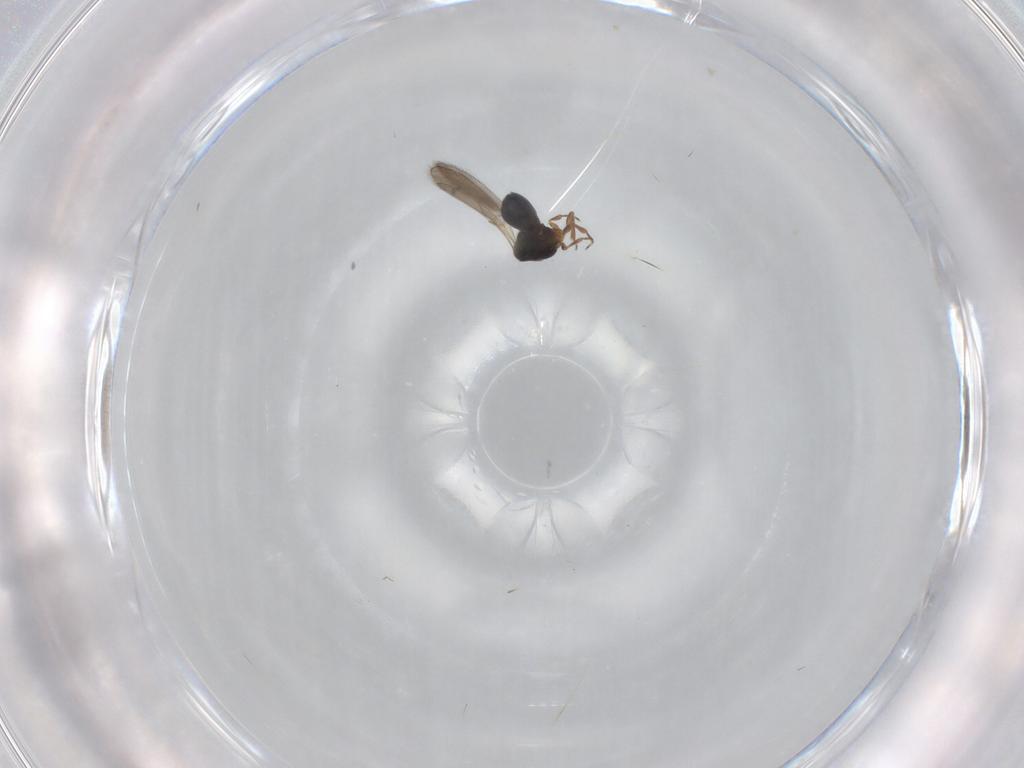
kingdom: Animalia
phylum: Arthropoda
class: Insecta
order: Hymenoptera
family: Scelionidae
